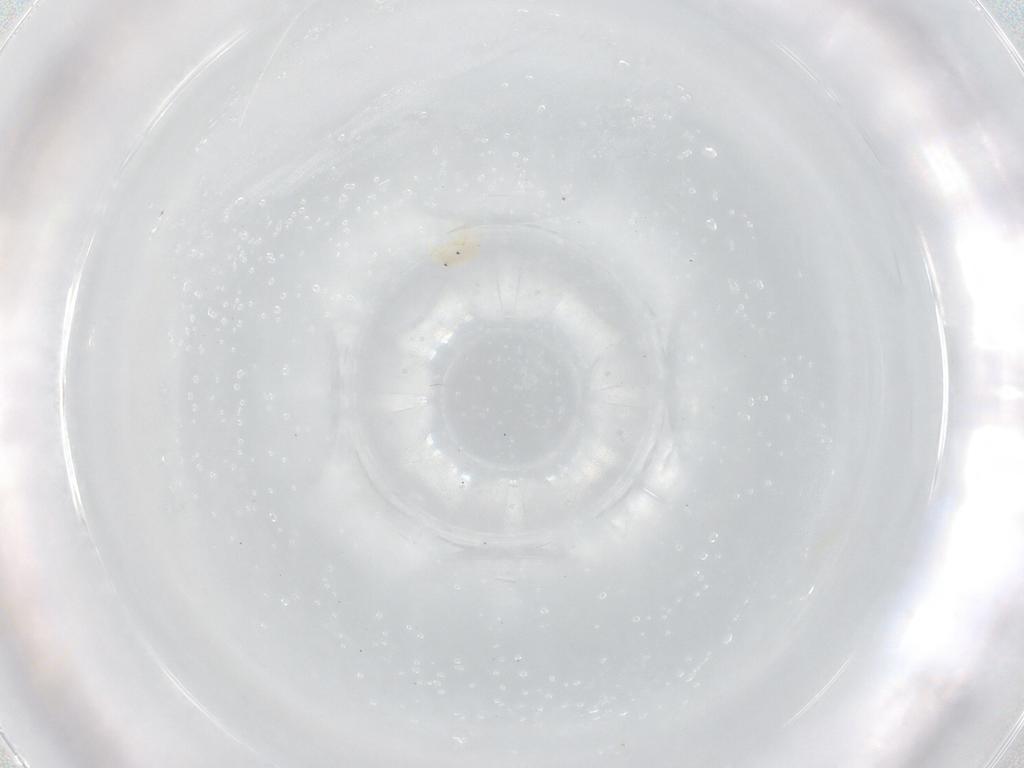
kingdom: Animalia
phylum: Arthropoda
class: Arachnida
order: Trombidiformes
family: Sperchontidae
